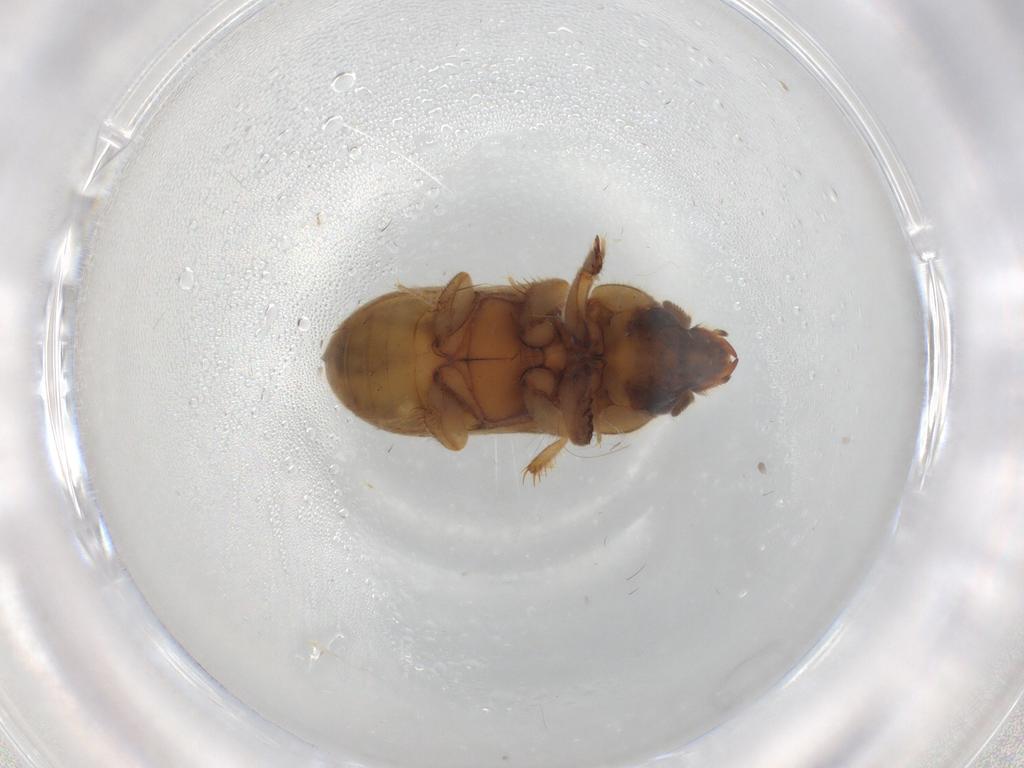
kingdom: Animalia
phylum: Arthropoda
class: Insecta
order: Coleoptera
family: Heteroceridae
